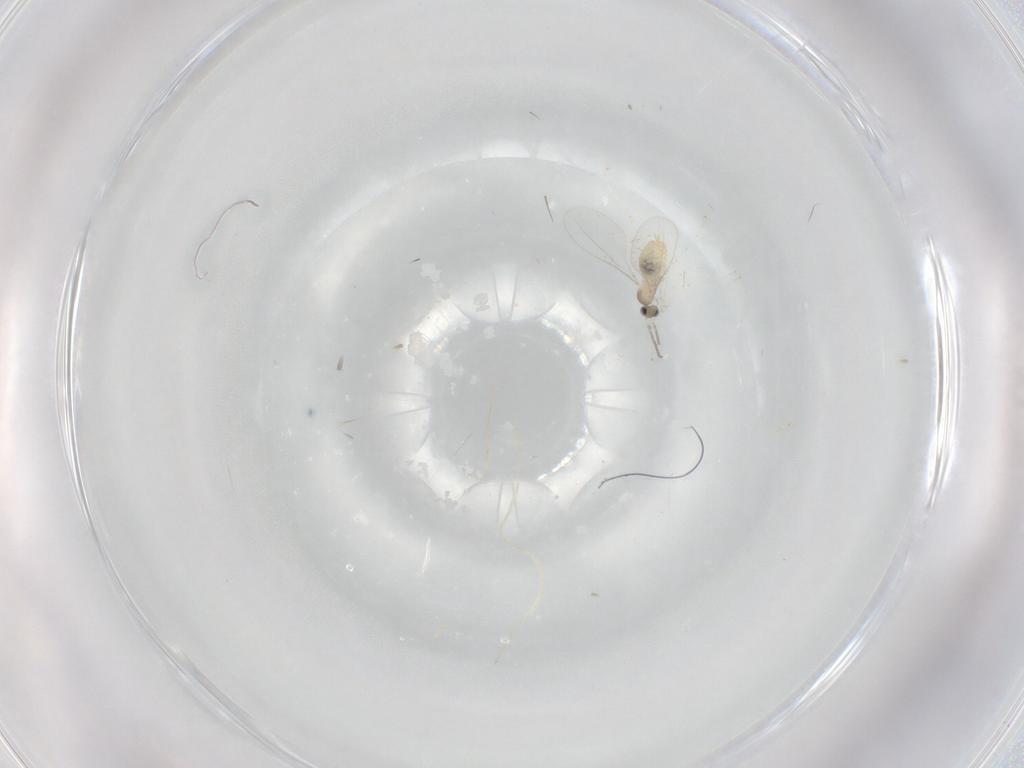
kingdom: Animalia
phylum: Arthropoda
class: Insecta
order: Diptera
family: Cecidomyiidae
